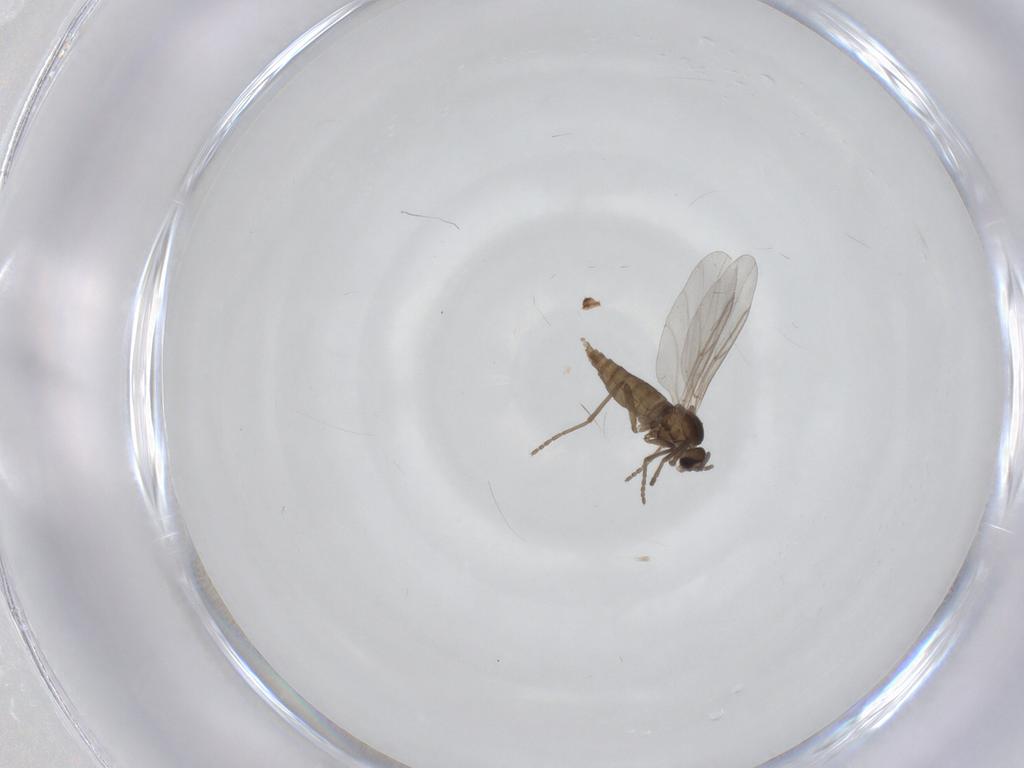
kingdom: Animalia
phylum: Arthropoda
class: Insecta
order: Diptera
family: Cecidomyiidae
